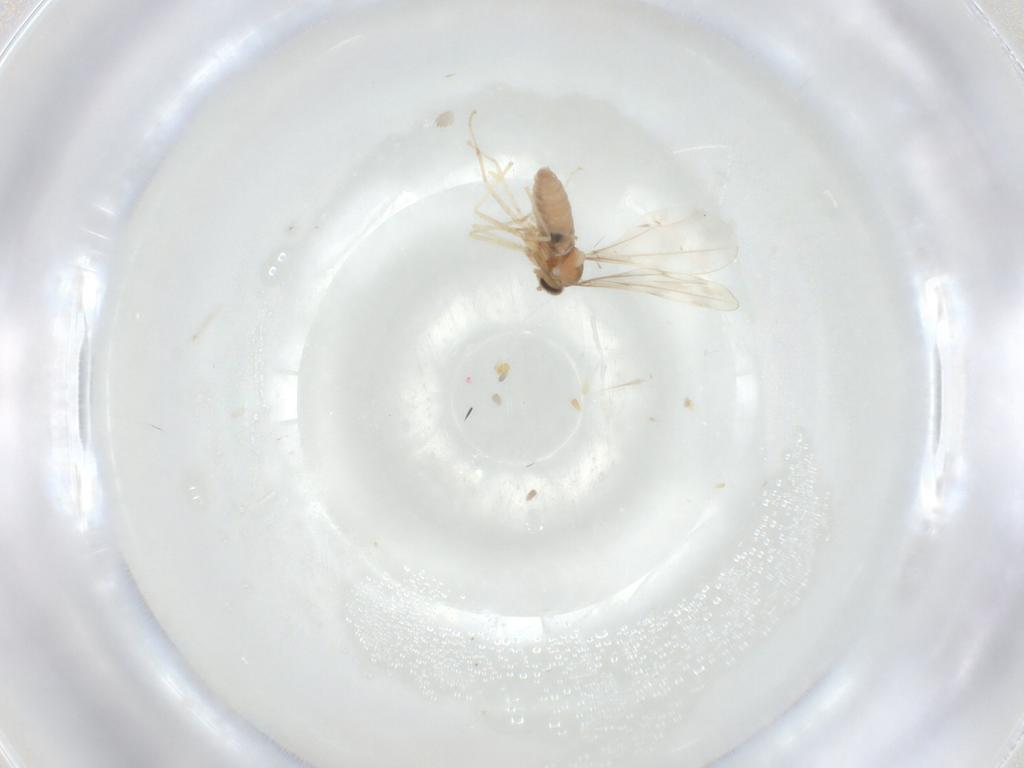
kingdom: Animalia
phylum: Arthropoda
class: Insecta
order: Diptera
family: Cecidomyiidae
